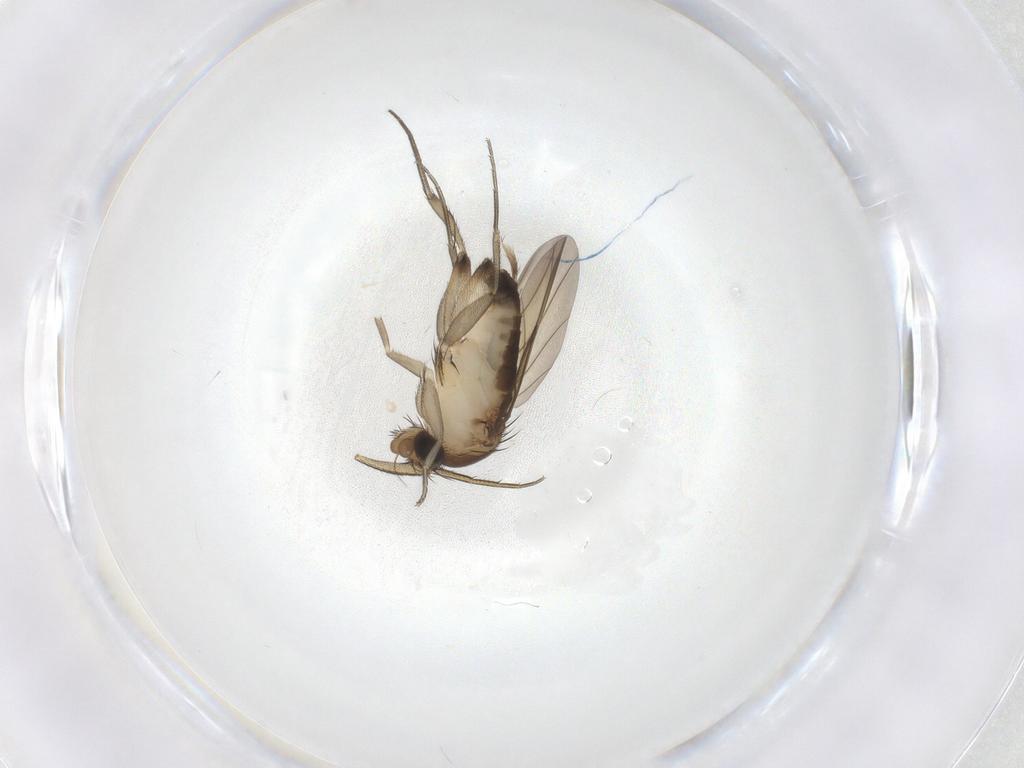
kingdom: Animalia
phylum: Arthropoda
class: Insecta
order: Diptera
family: Phoridae
